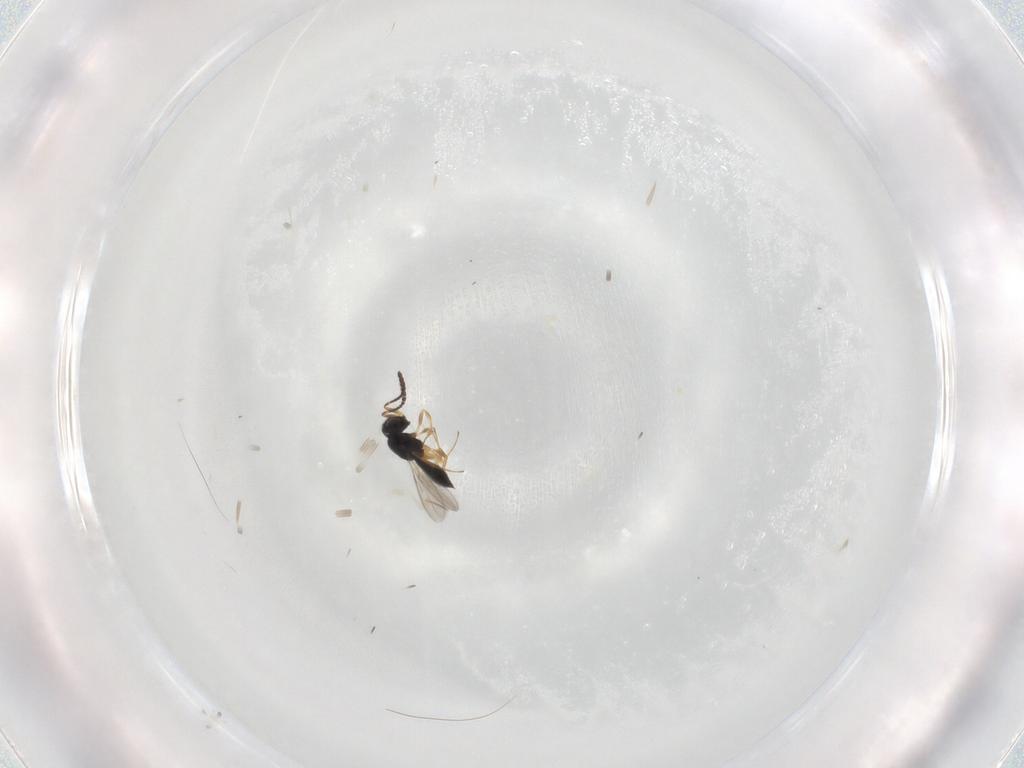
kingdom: Animalia
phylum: Arthropoda
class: Insecta
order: Hymenoptera
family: Scelionidae
